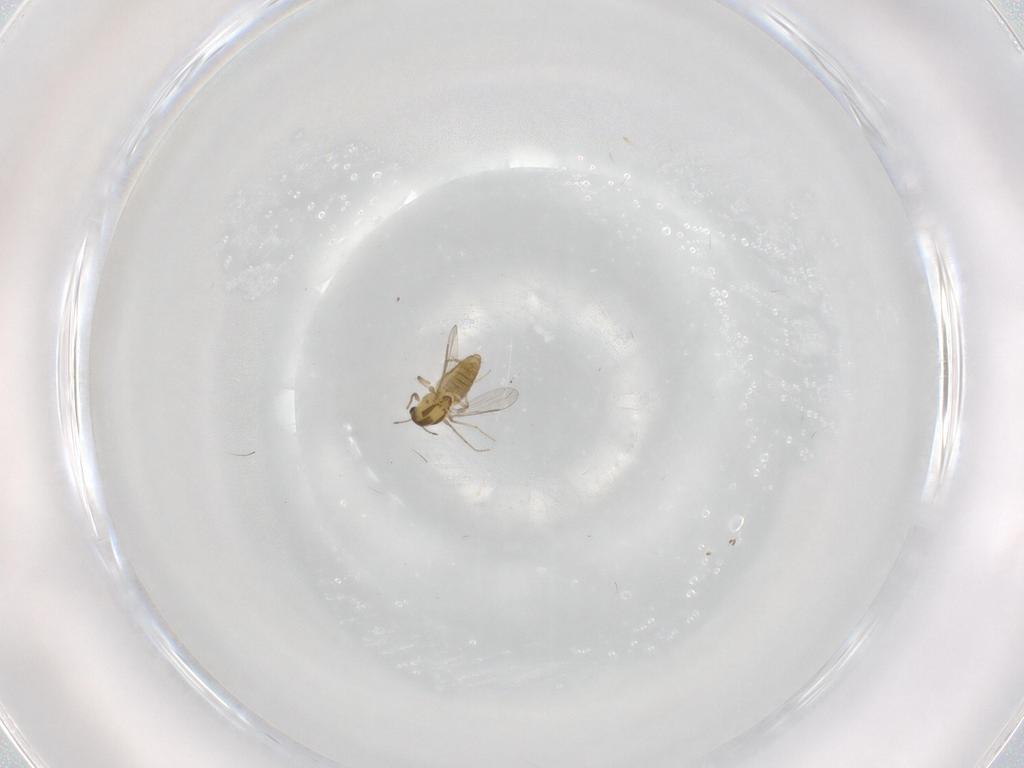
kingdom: Animalia
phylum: Arthropoda
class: Insecta
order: Diptera
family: Chironomidae
